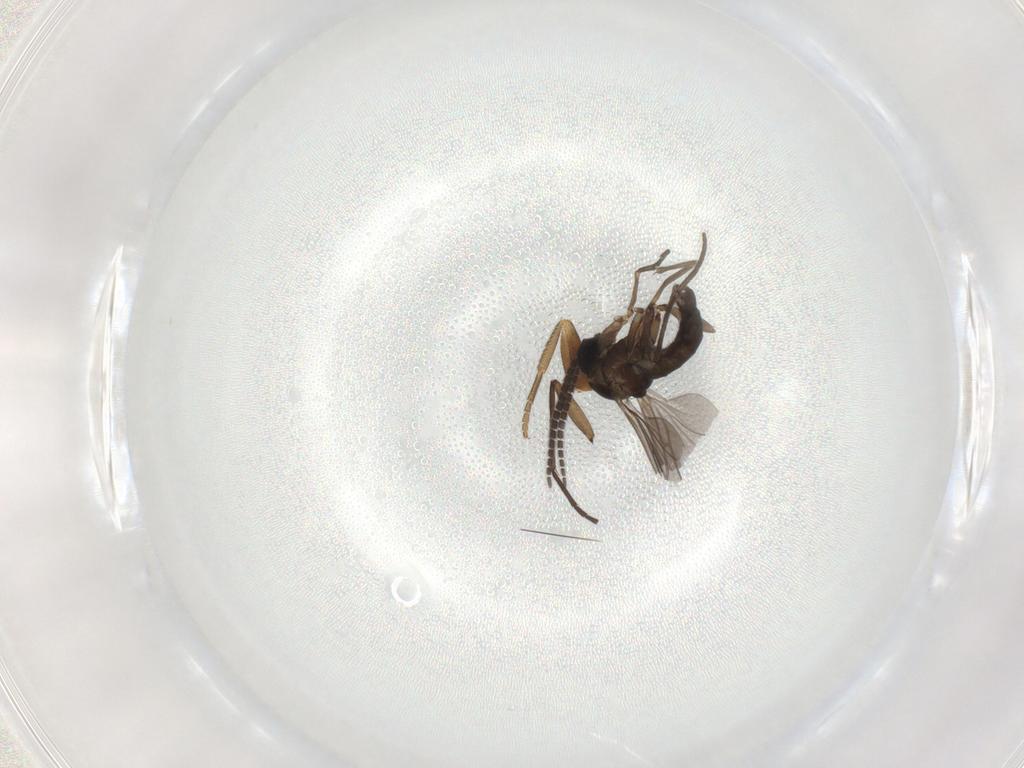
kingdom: Animalia
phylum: Arthropoda
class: Insecta
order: Diptera
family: Sciaridae
